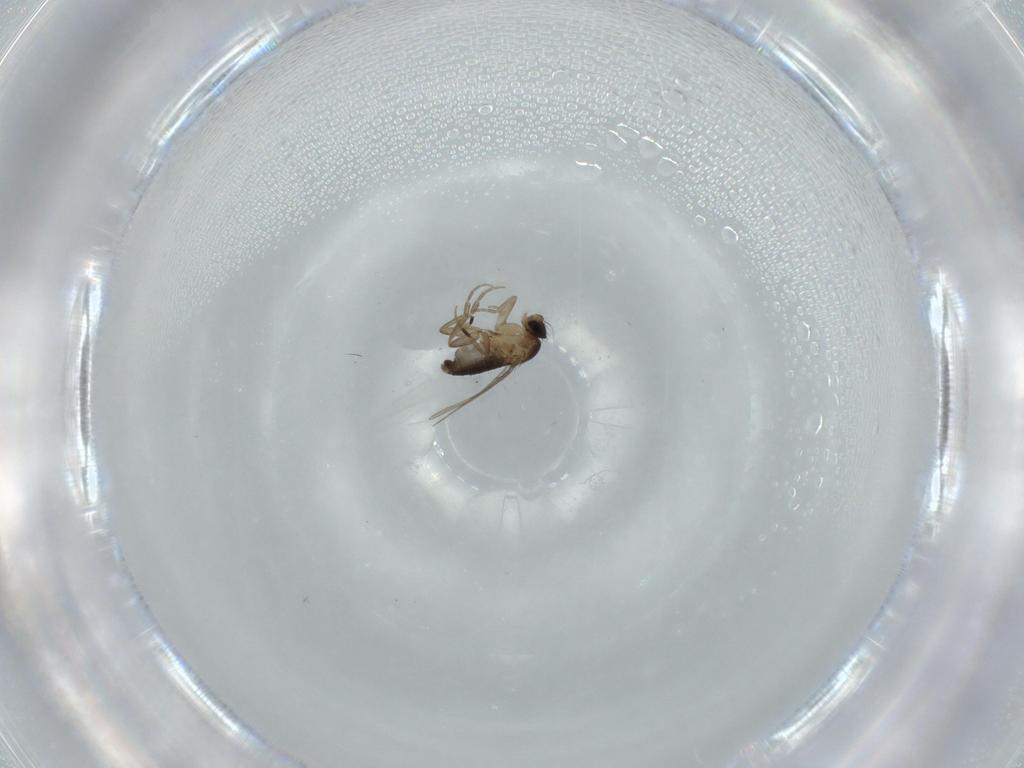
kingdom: Animalia
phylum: Arthropoda
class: Insecta
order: Diptera
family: Phoridae
